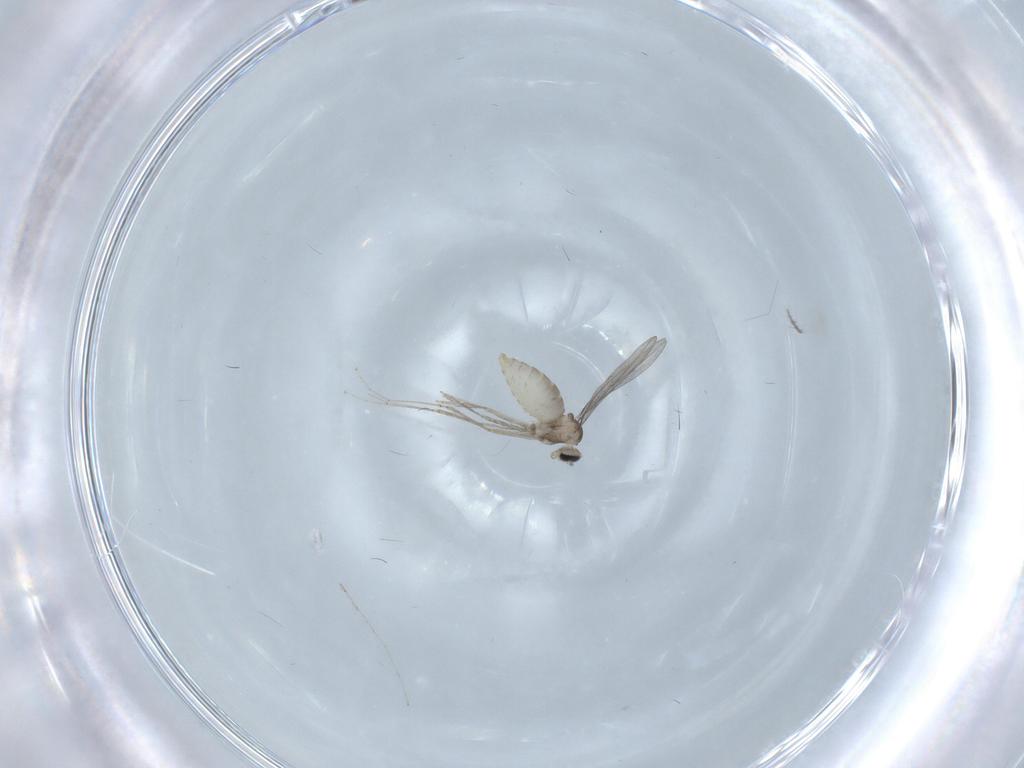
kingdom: Animalia
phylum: Arthropoda
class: Insecta
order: Diptera
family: Chironomidae
